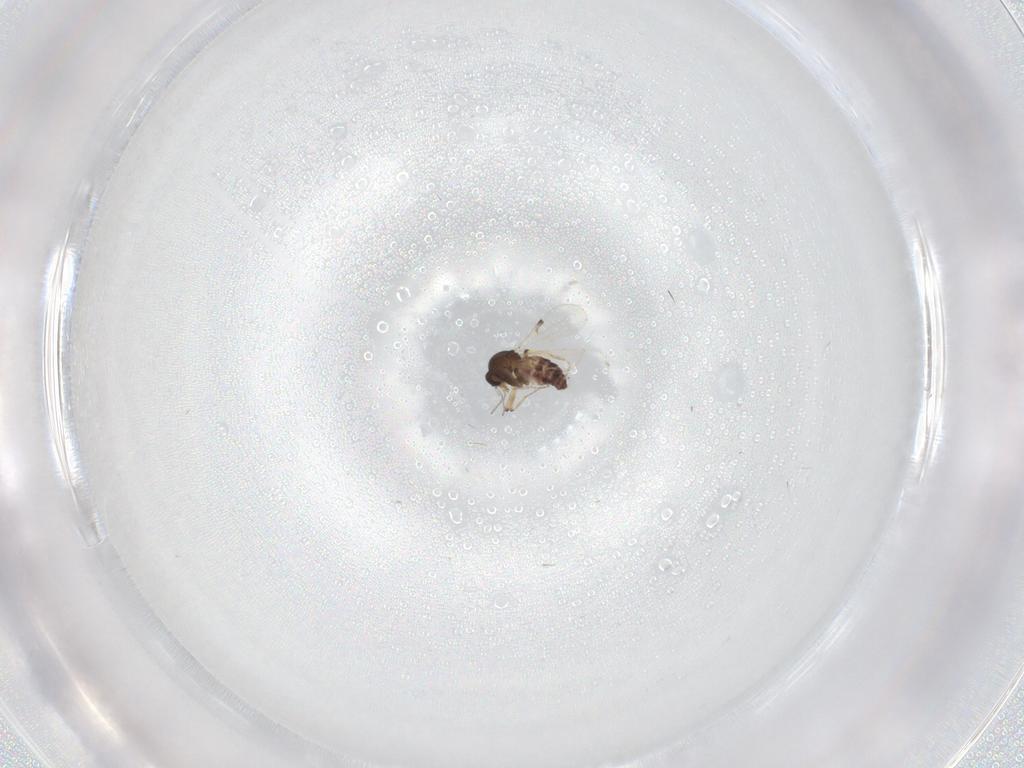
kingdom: Animalia
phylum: Arthropoda
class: Insecta
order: Diptera
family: Ceratopogonidae
